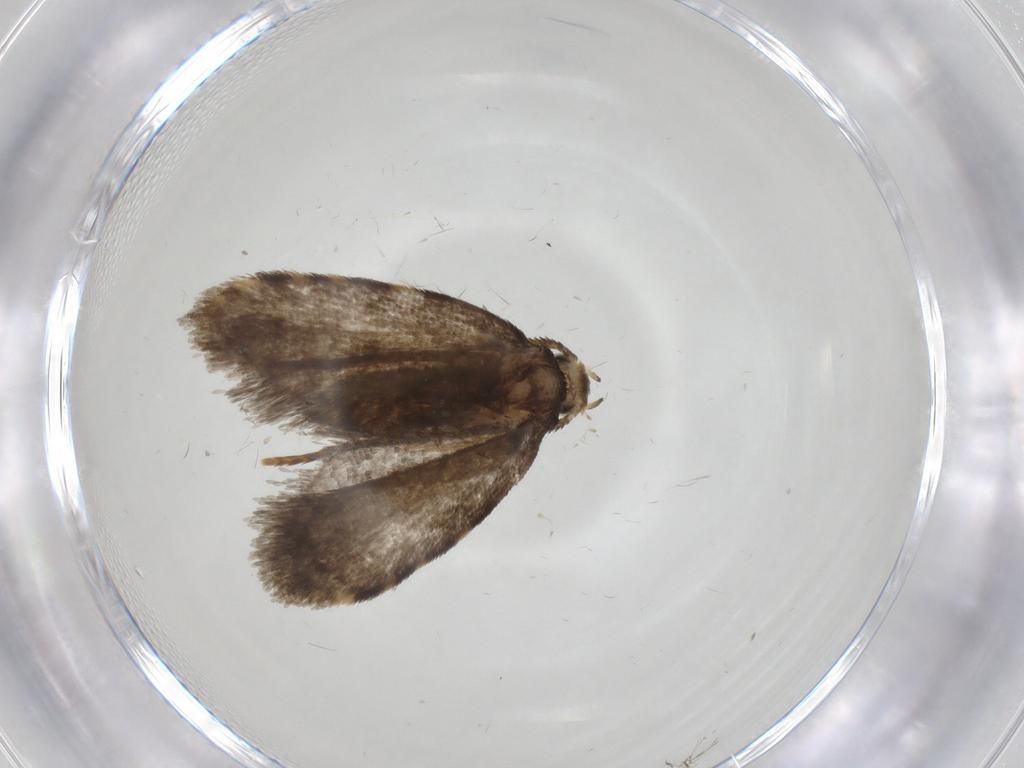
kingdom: Animalia
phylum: Arthropoda
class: Insecta
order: Lepidoptera
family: Psychidae
